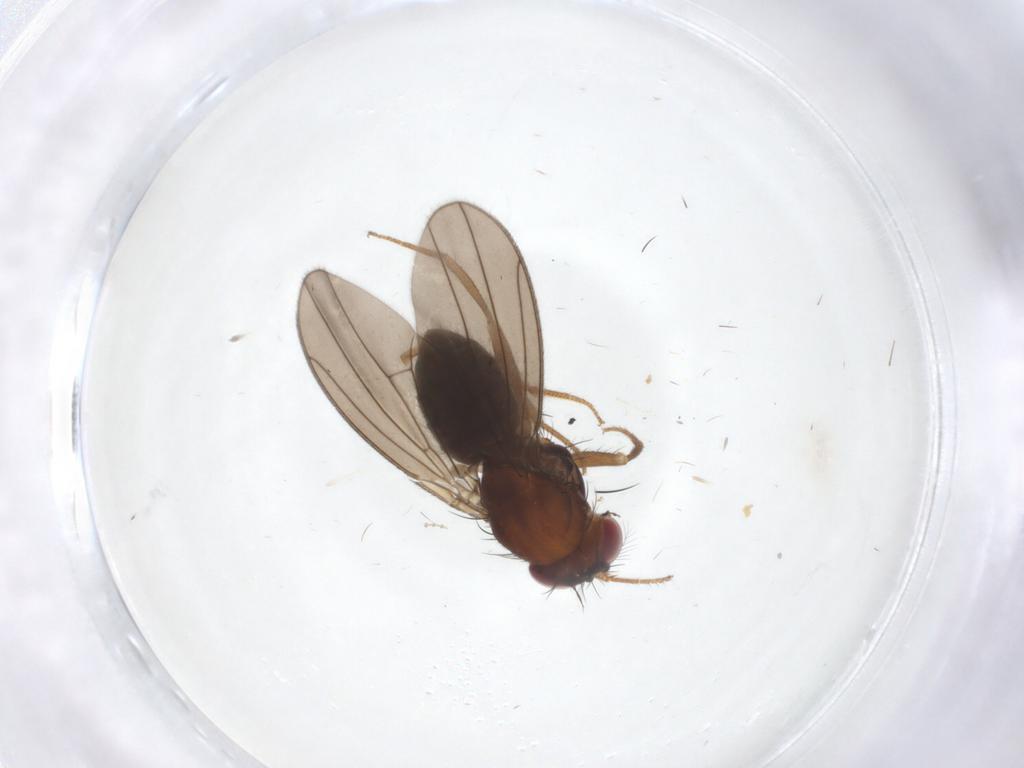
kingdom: Animalia
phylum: Arthropoda
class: Insecta
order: Diptera
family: Drosophilidae
